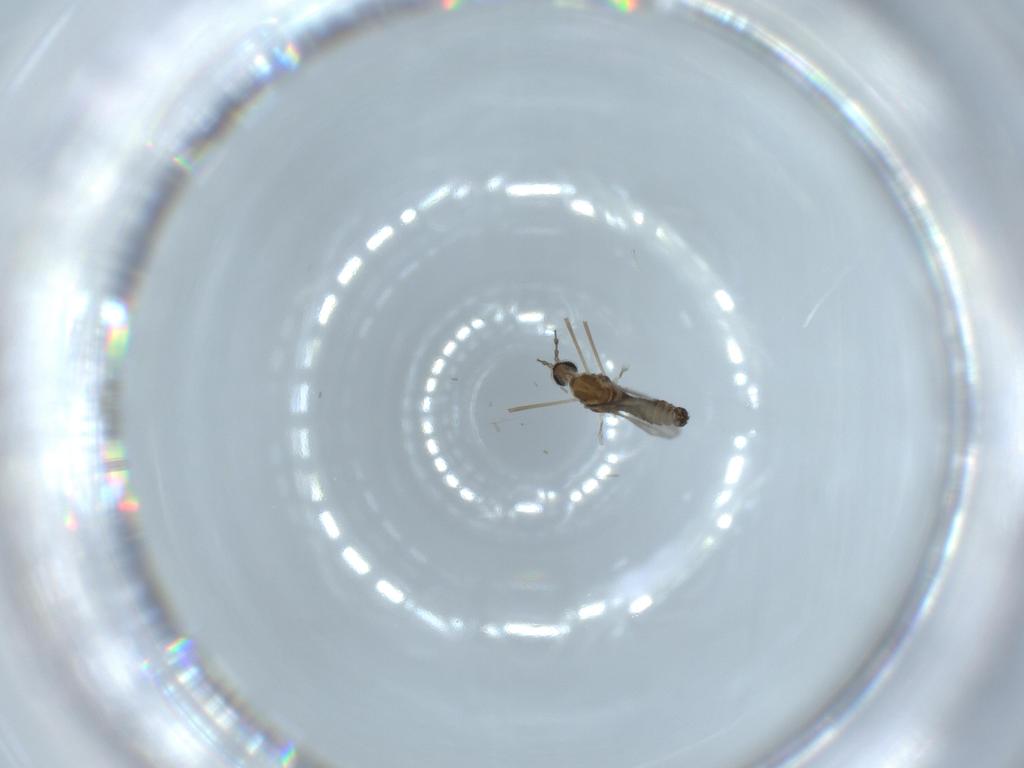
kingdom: Animalia
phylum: Arthropoda
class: Insecta
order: Diptera
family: Cecidomyiidae
